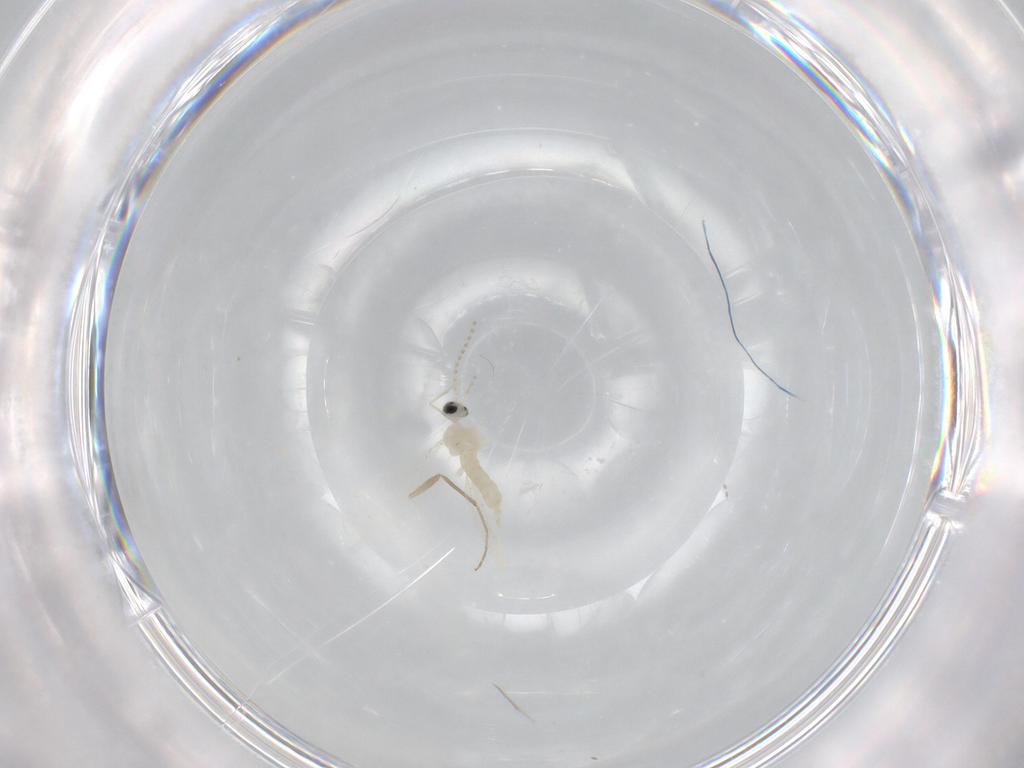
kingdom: Animalia
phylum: Arthropoda
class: Insecta
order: Diptera
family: Cecidomyiidae
